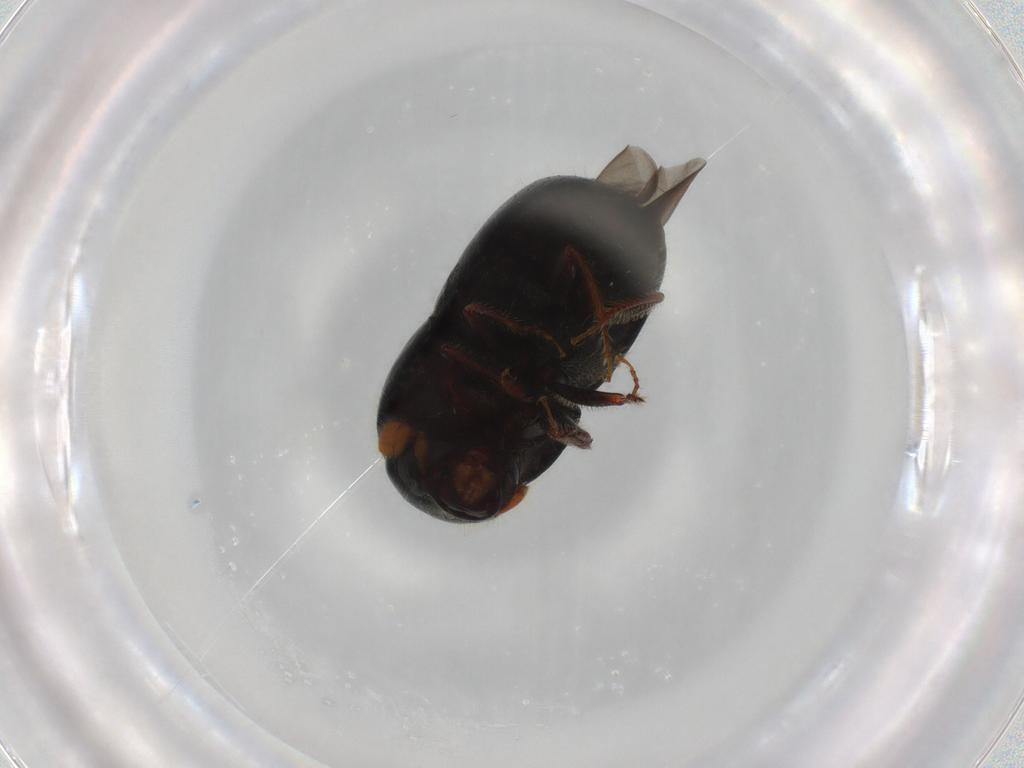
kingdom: Animalia
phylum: Arthropoda
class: Insecta
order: Coleoptera
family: Curculionidae
